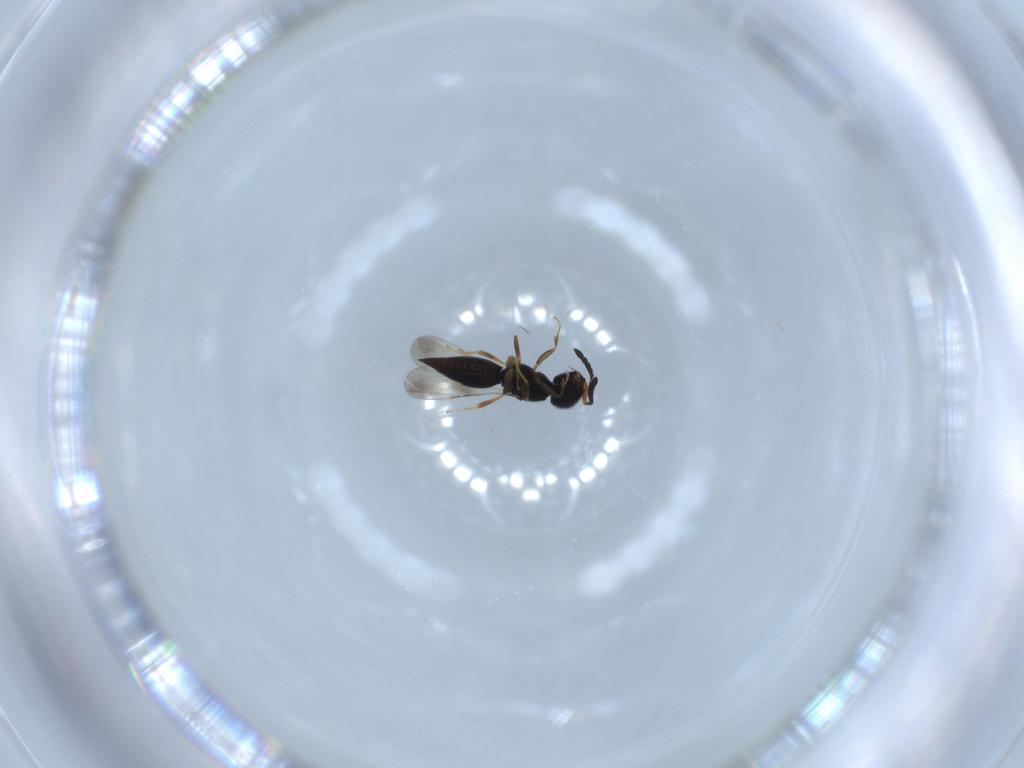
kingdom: Animalia
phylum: Arthropoda
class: Insecta
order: Hymenoptera
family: Ceraphronidae
